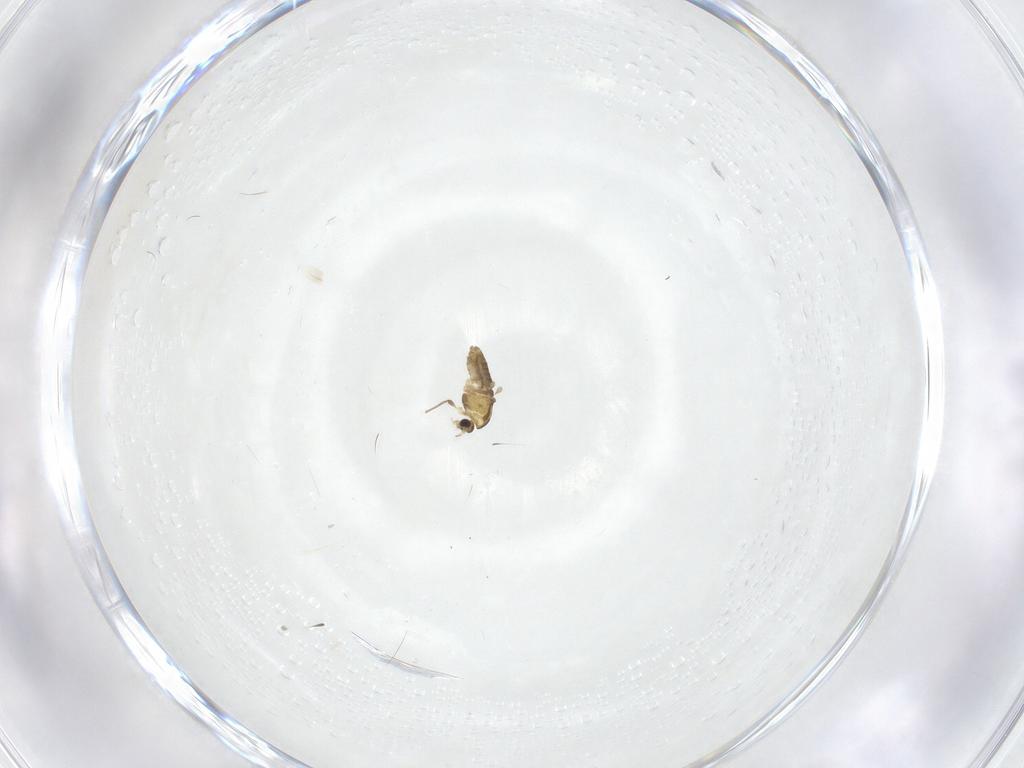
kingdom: Animalia
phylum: Arthropoda
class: Insecta
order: Diptera
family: Chironomidae
